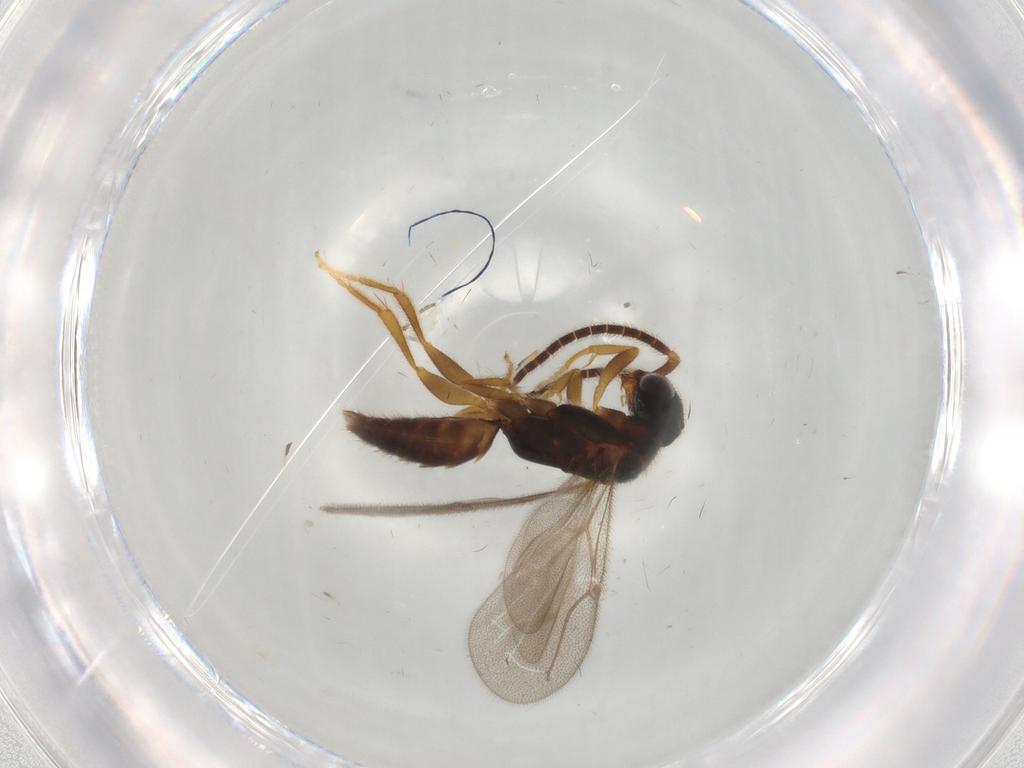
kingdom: Animalia
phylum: Arthropoda
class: Insecta
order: Hymenoptera
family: Bethylidae
